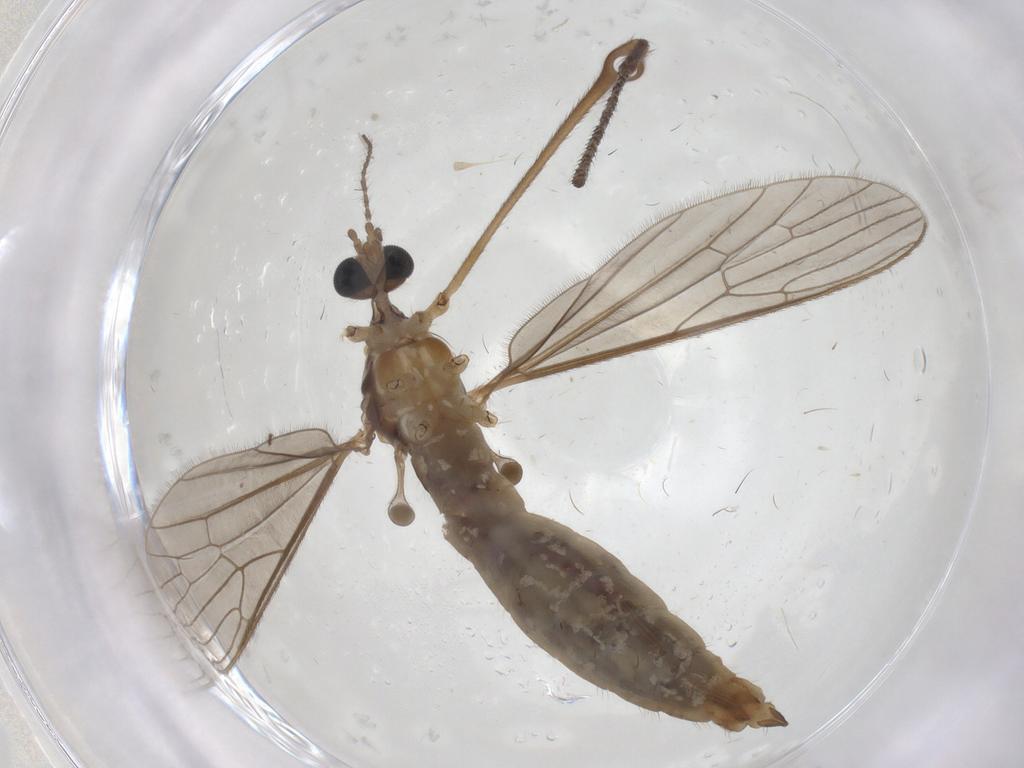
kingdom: Animalia
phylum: Arthropoda
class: Insecta
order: Diptera
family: Limoniidae
